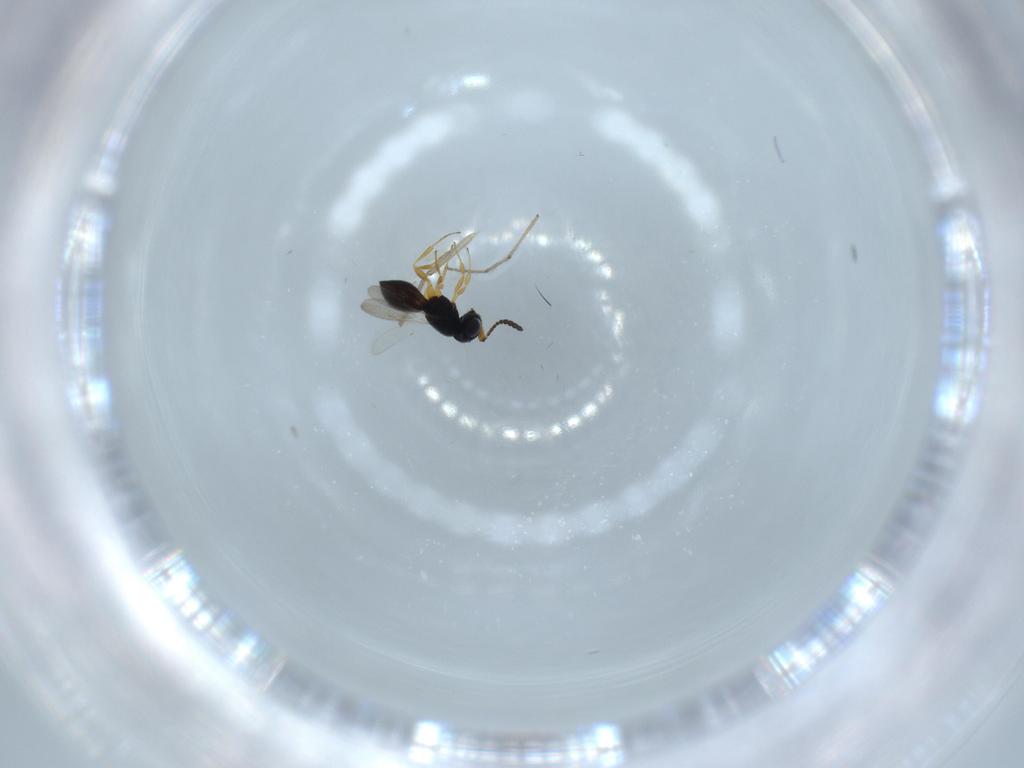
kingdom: Animalia
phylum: Arthropoda
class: Insecta
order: Hymenoptera
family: Scelionidae
